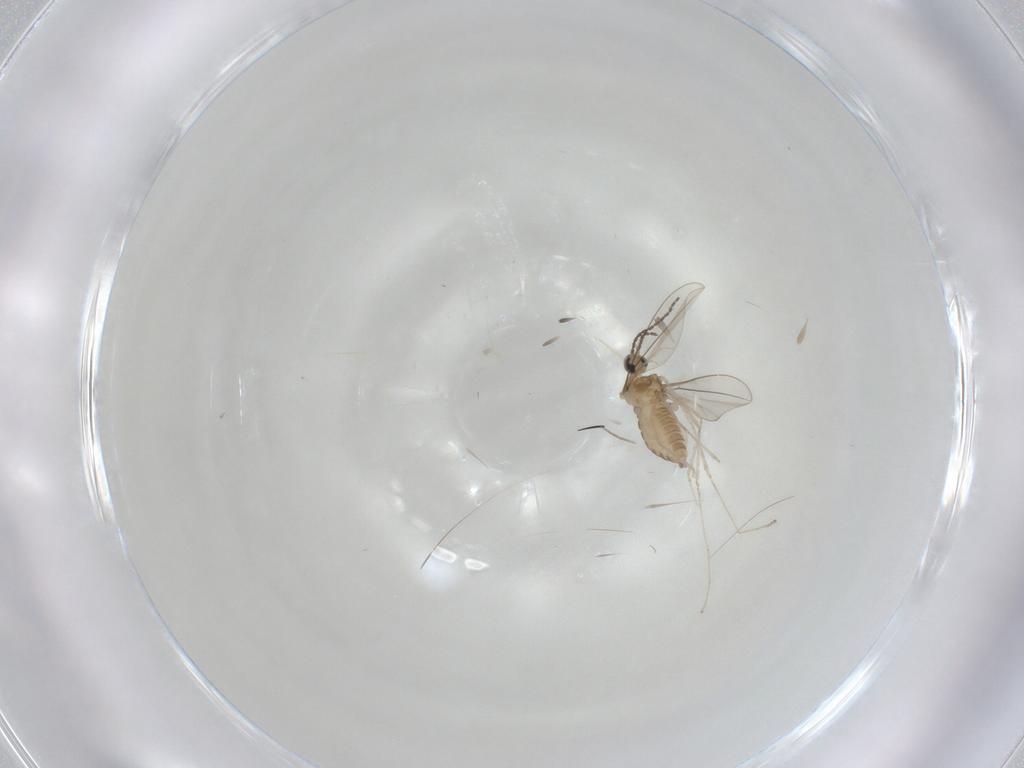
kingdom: Animalia
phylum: Arthropoda
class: Insecta
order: Diptera
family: Cecidomyiidae
